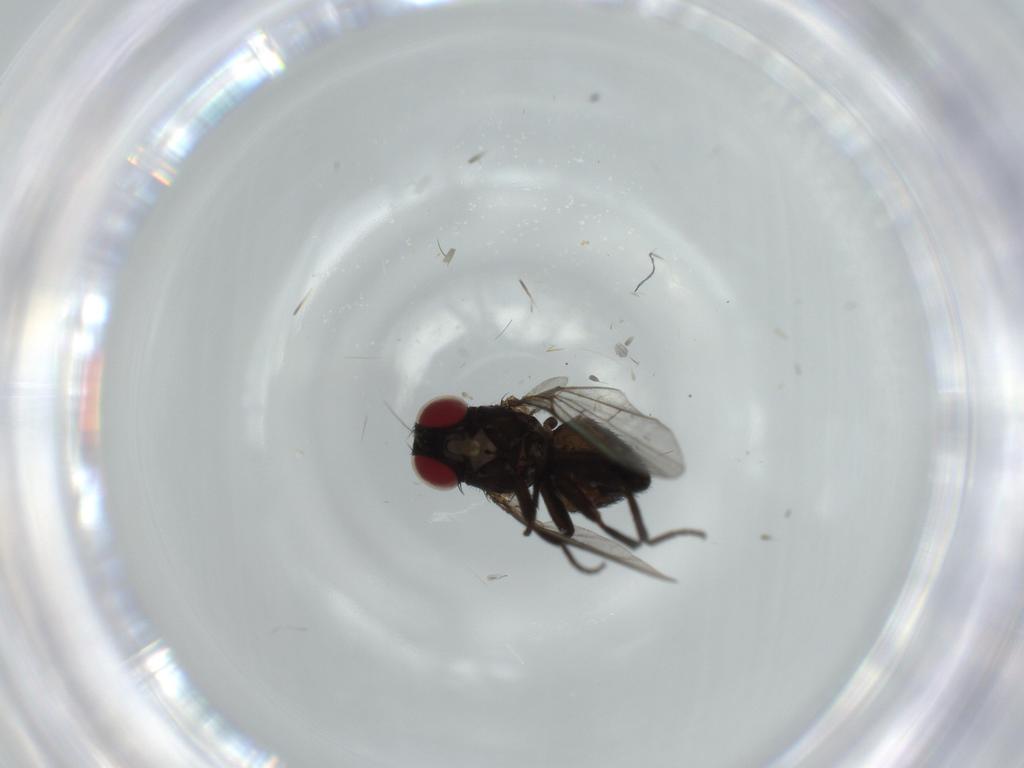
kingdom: Animalia
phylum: Arthropoda
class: Insecta
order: Diptera
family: Agromyzidae
